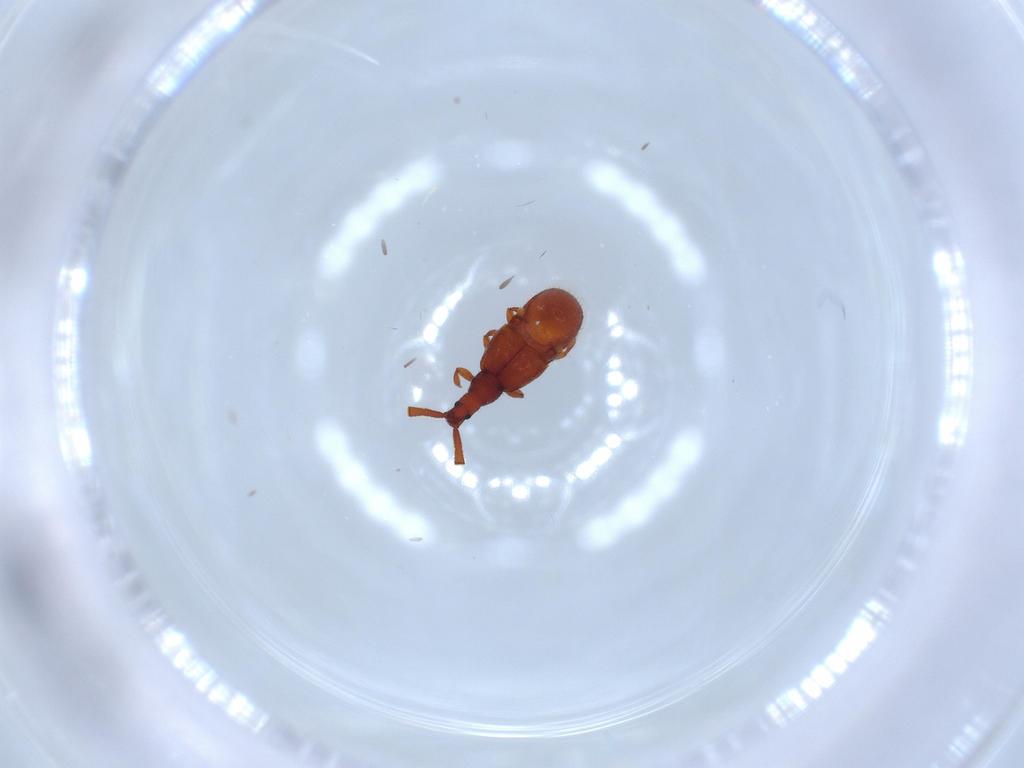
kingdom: Animalia
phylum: Arthropoda
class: Insecta
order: Coleoptera
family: Staphylinidae
